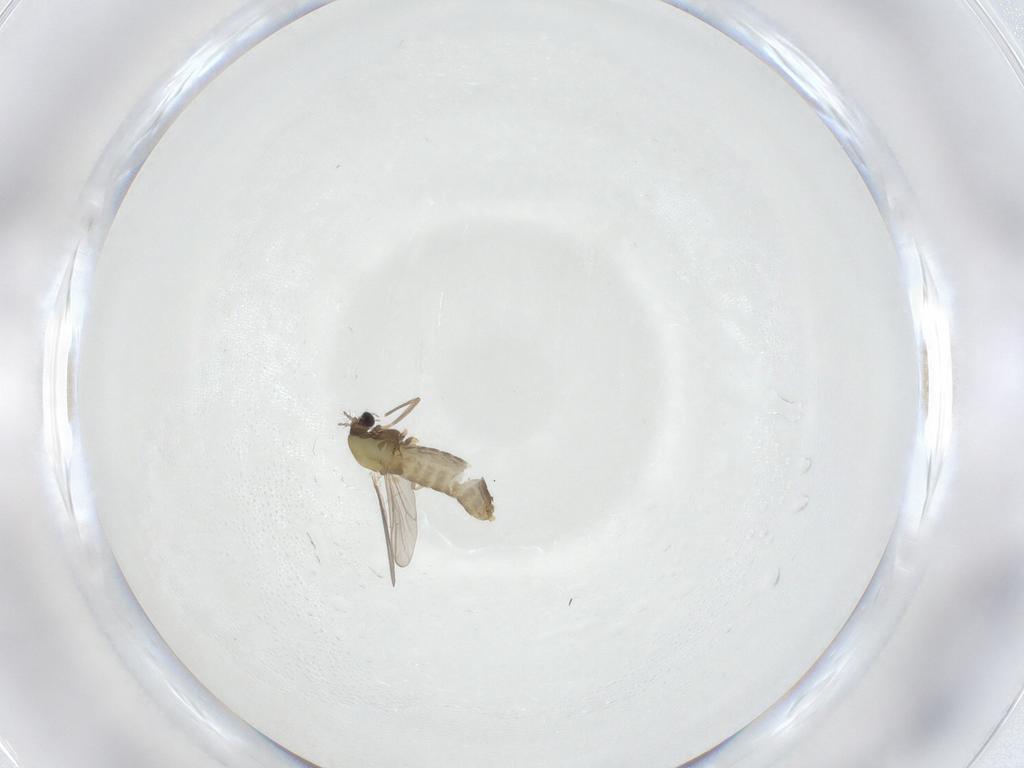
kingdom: Animalia
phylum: Arthropoda
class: Insecta
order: Diptera
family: Chironomidae
